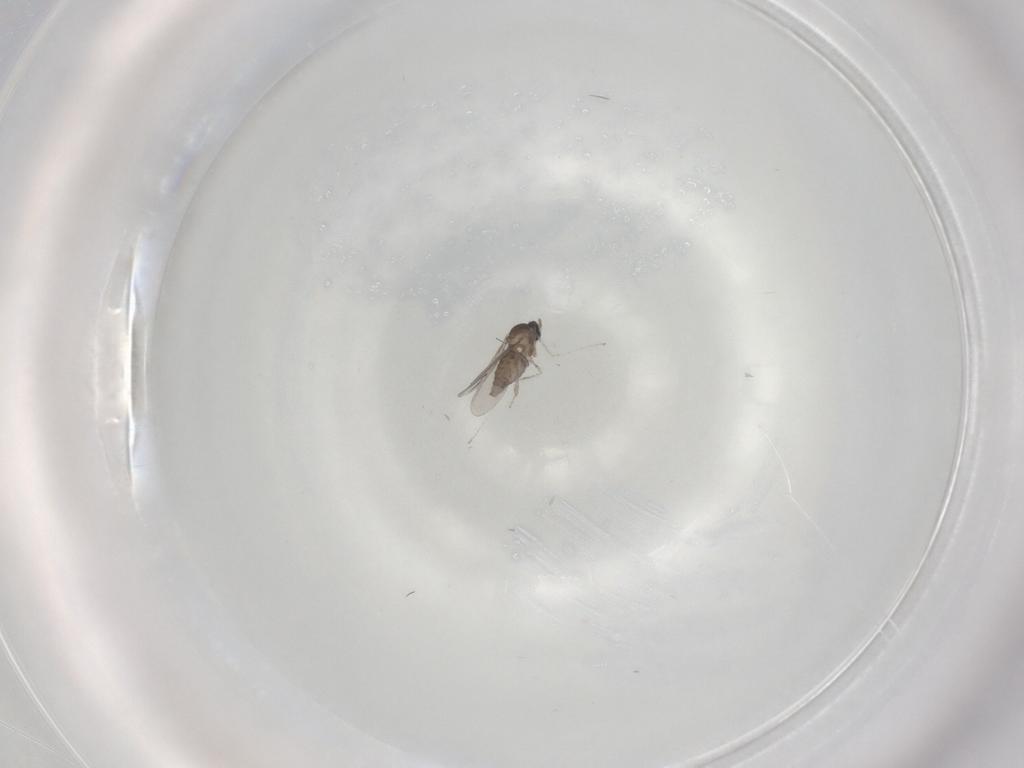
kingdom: Animalia
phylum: Arthropoda
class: Insecta
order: Diptera
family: Cecidomyiidae
